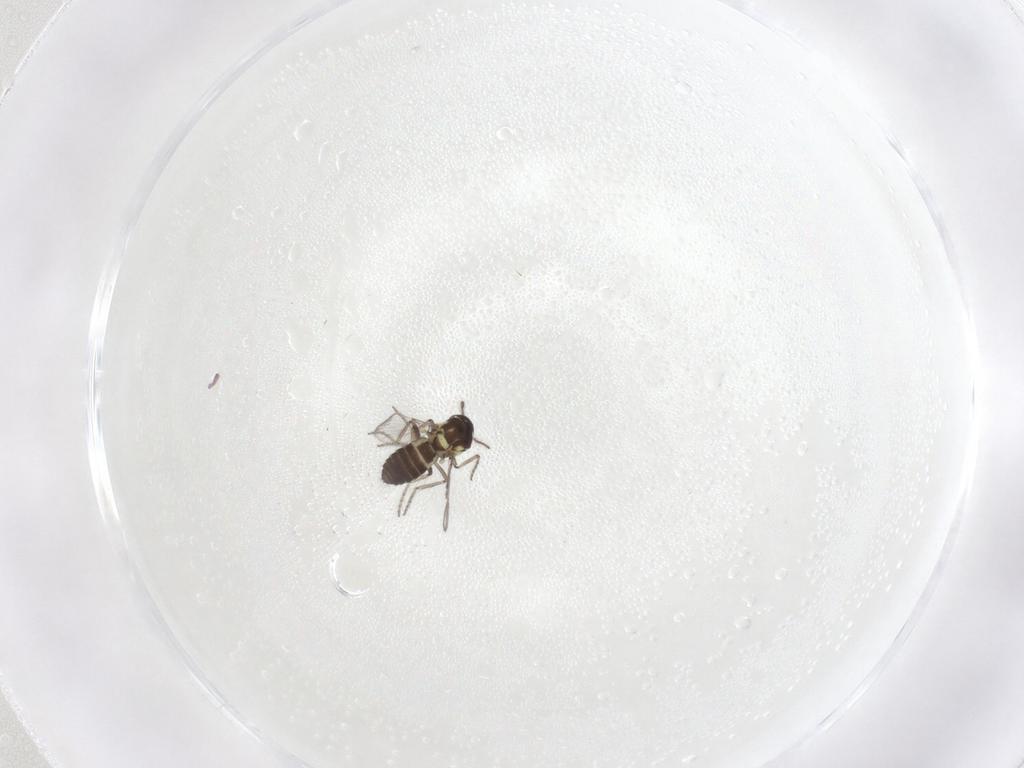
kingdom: Animalia
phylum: Arthropoda
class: Insecta
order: Diptera
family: Ceratopogonidae
